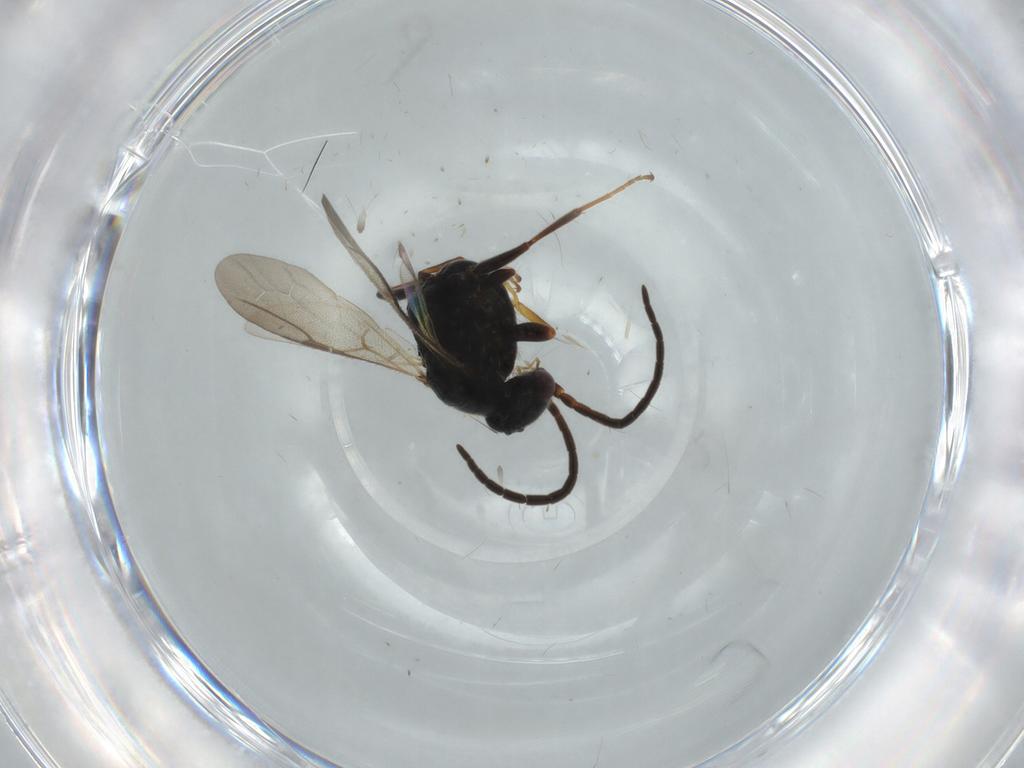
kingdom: Animalia
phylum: Arthropoda
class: Insecta
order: Hymenoptera
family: Bethylidae
